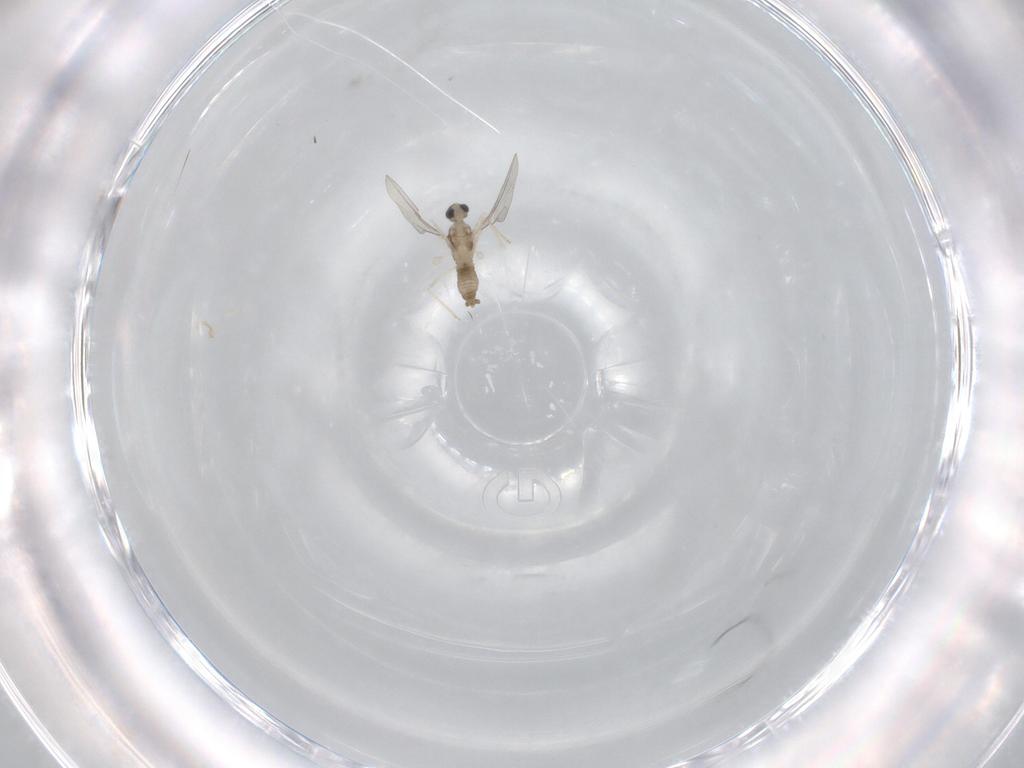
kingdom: Animalia
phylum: Arthropoda
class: Insecta
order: Diptera
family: Cecidomyiidae
